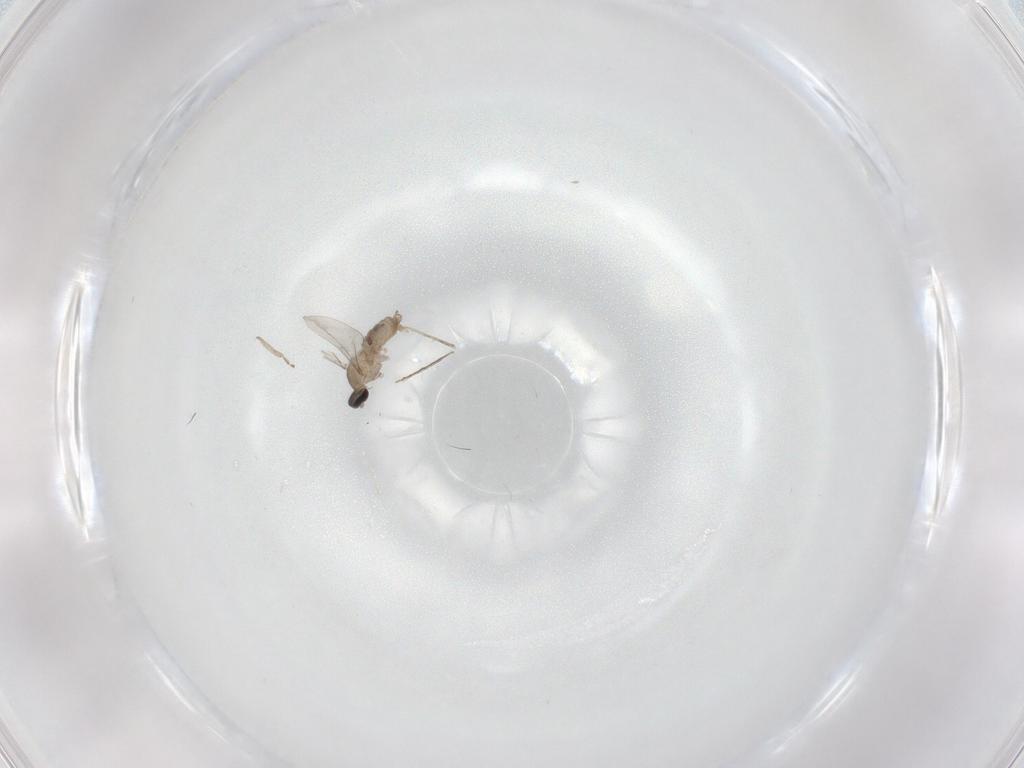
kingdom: Animalia
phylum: Arthropoda
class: Insecta
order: Diptera
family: Cecidomyiidae
